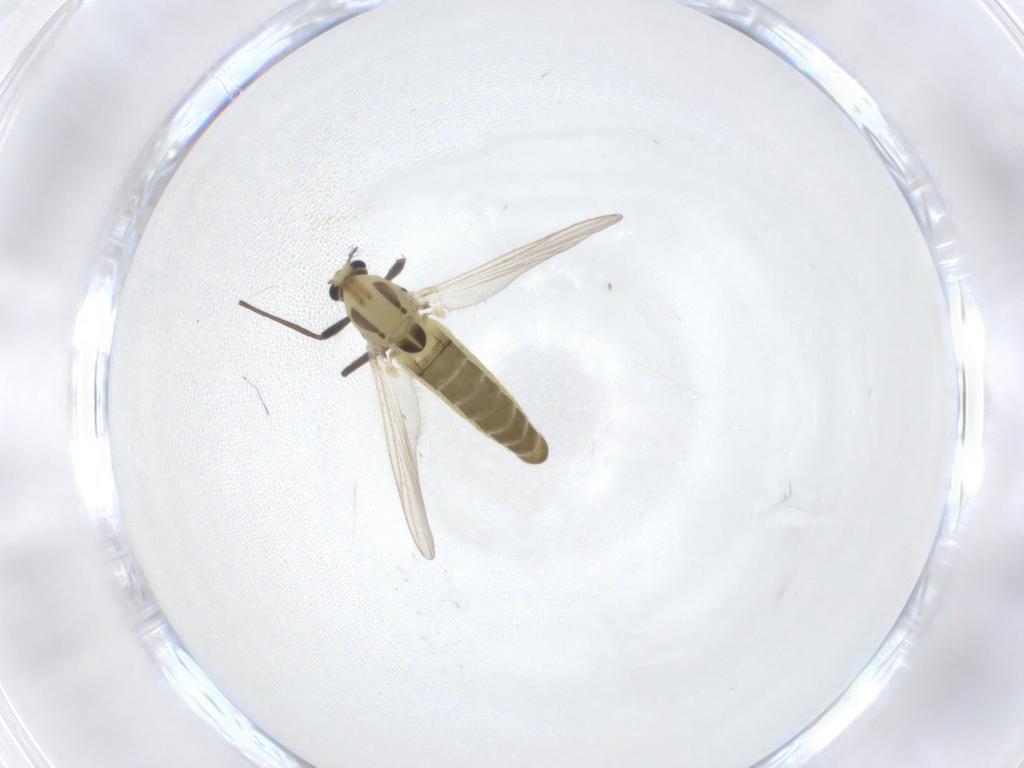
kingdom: Animalia
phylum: Arthropoda
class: Insecta
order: Diptera
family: Chironomidae
